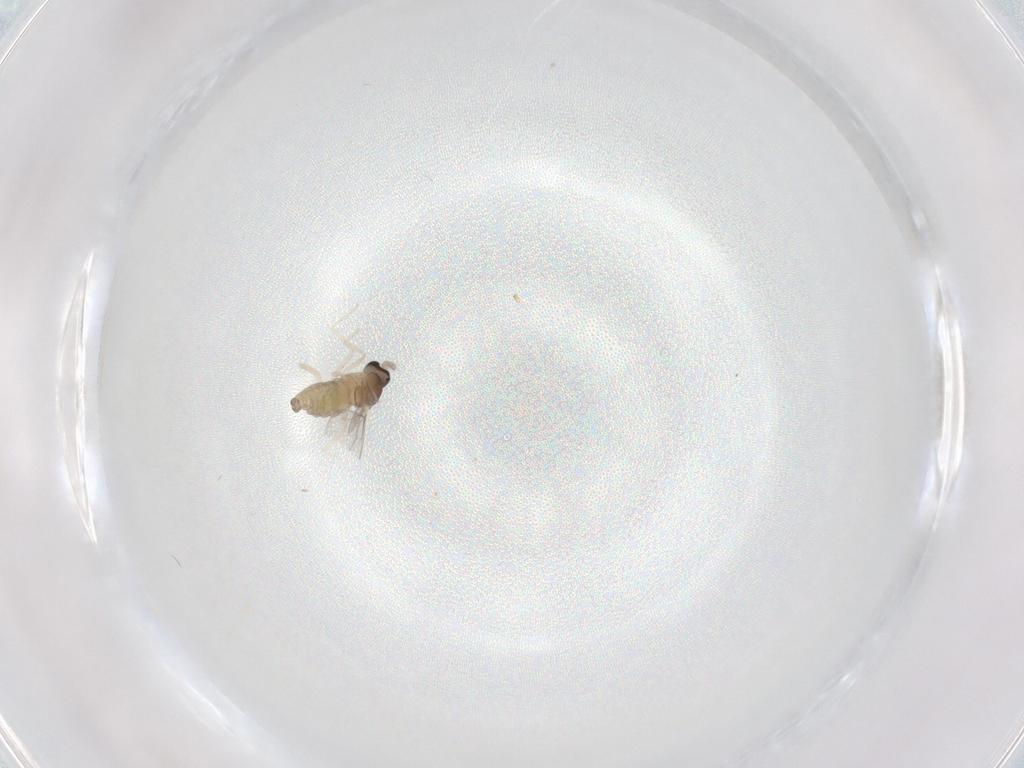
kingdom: Animalia
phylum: Arthropoda
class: Insecta
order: Diptera
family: Cecidomyiidae
